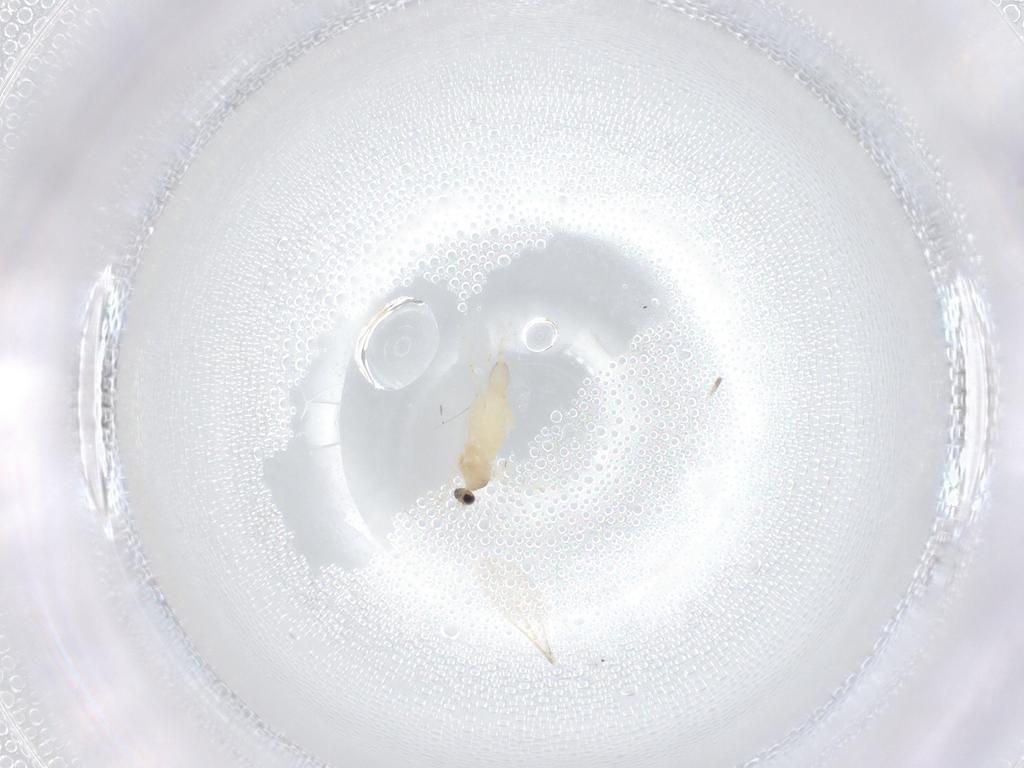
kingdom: Animalia
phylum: Arthropoda
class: Insecta
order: Diptera
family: Cecidomyiidae
